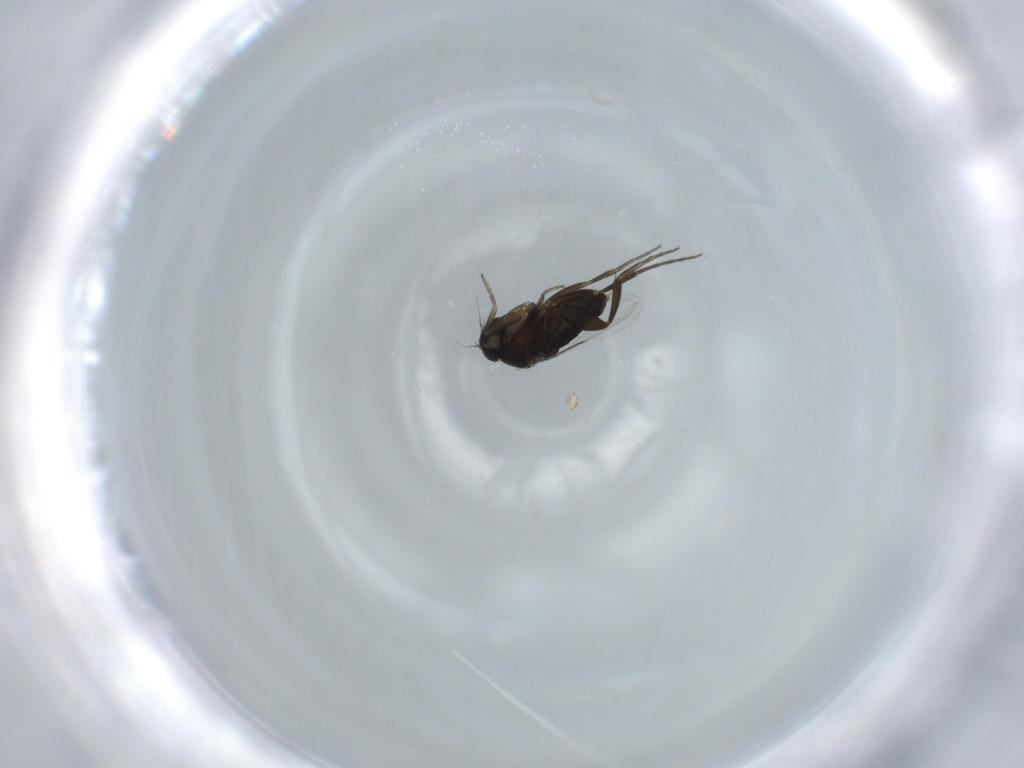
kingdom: Animalia
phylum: Arthropoda
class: Insecta
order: Diptera
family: Phoridae
